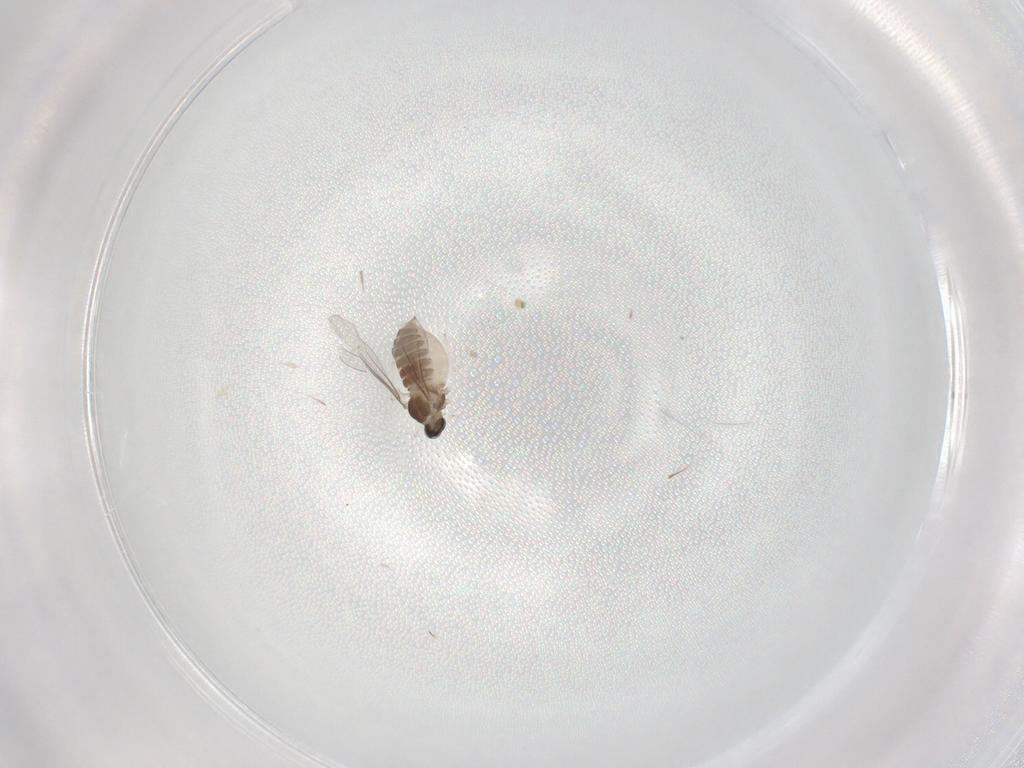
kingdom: Animalia
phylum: Arthropoda
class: Insecta
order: Diptera
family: Cecidomyiidae
